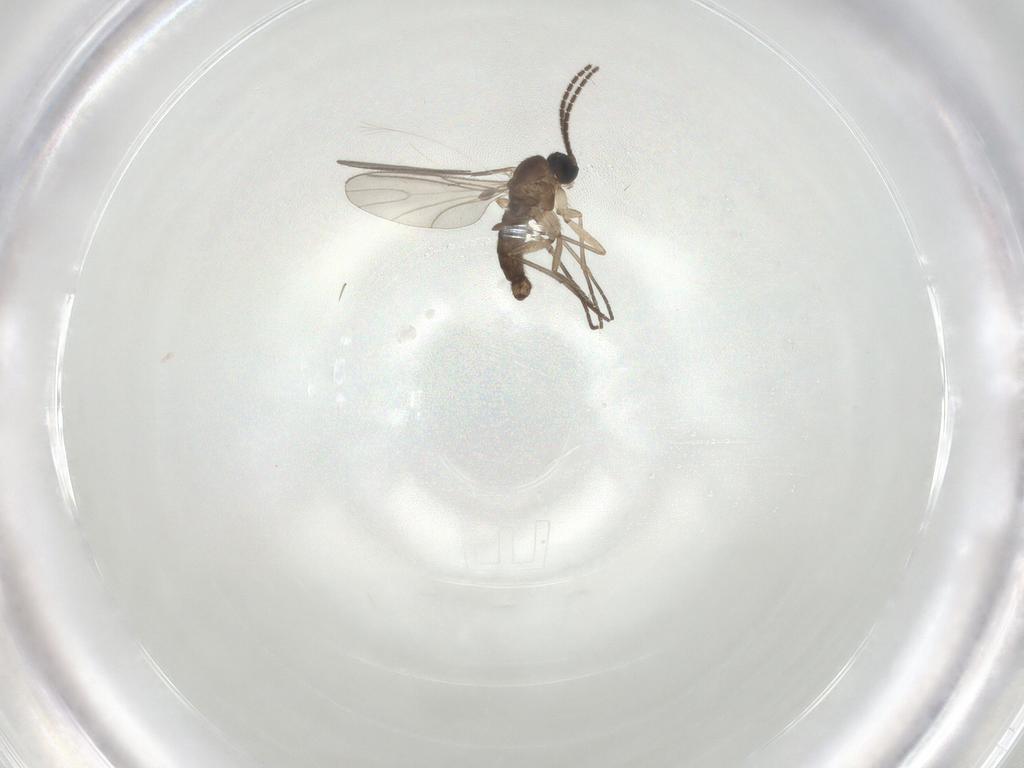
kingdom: Animalia
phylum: Arthropoda
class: Insecta
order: Diptera
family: Sciaridae
